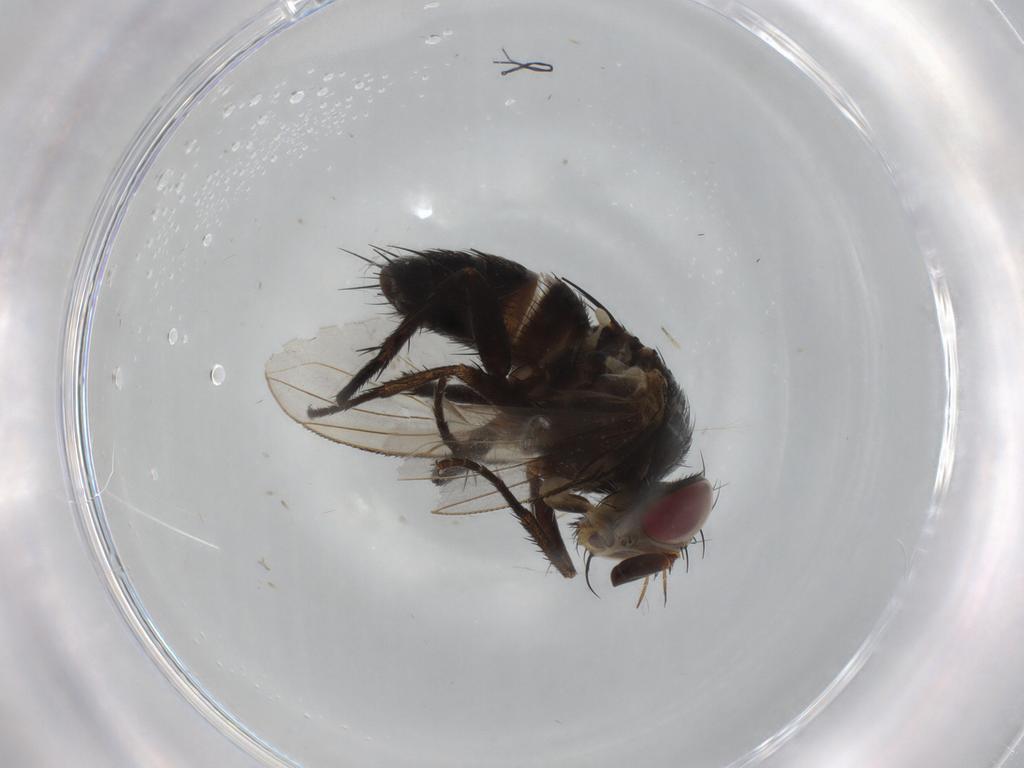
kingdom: Animalia
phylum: Arthropoda
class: Insecta
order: Diptera
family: Tachinidae
